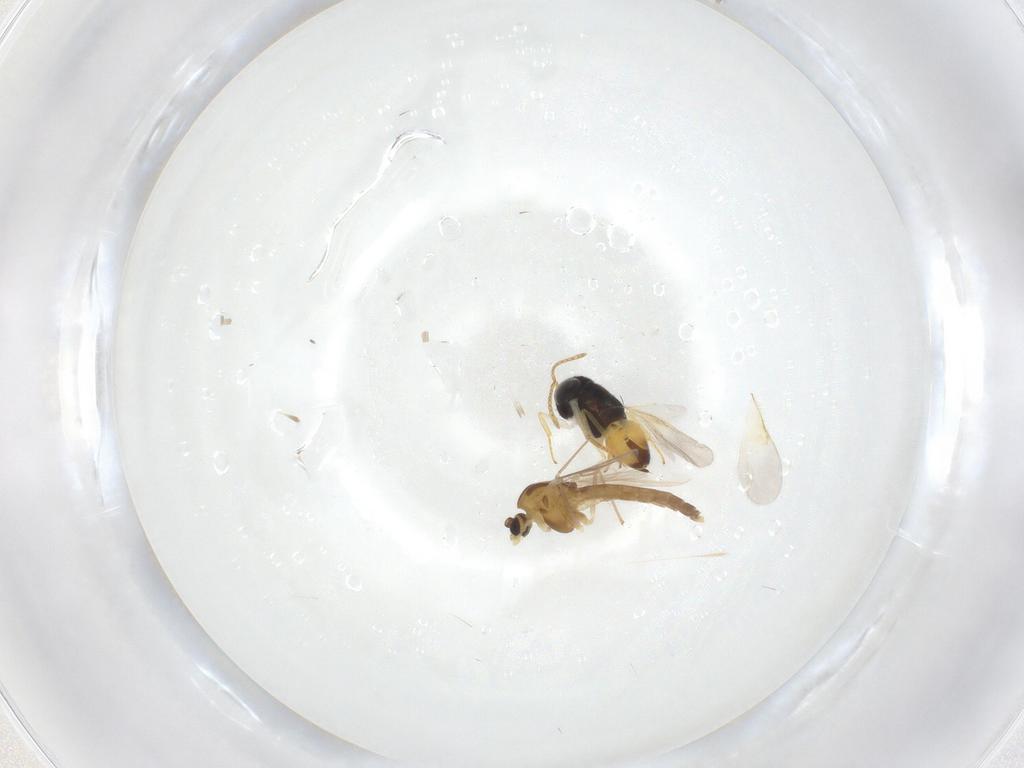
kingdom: Animalia
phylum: Arthropoda
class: Insecta
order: Diptera
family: Chironomidae
